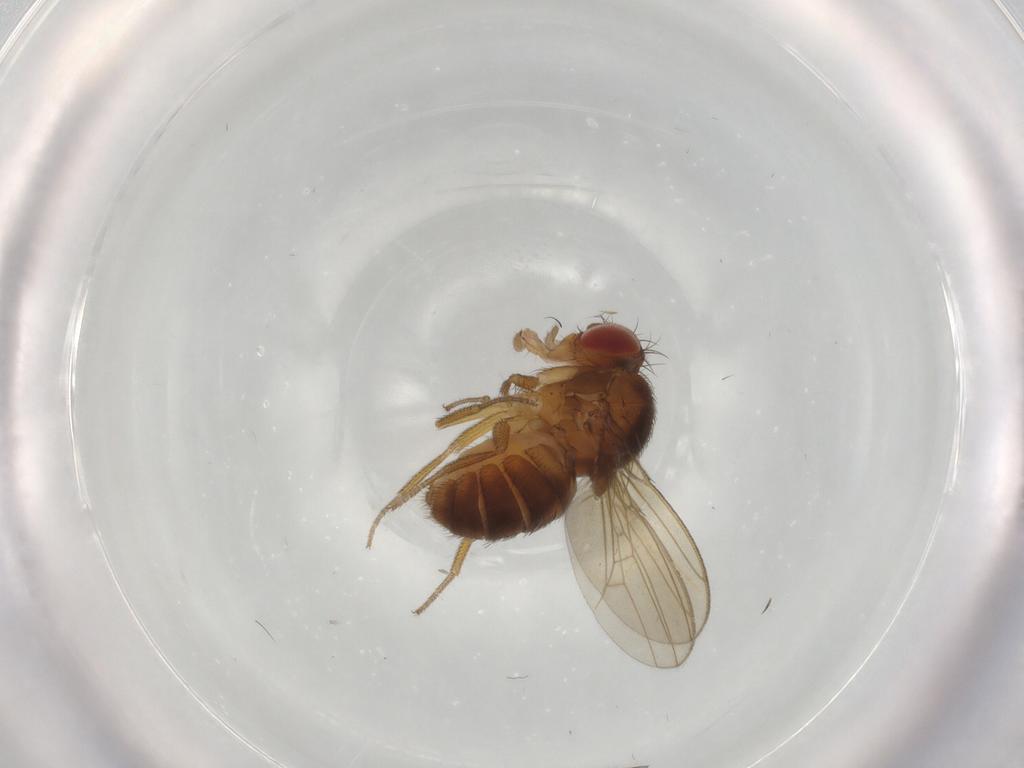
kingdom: Animalia
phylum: Arthropoda
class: Insecta
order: Diptera
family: Drosophilidae
